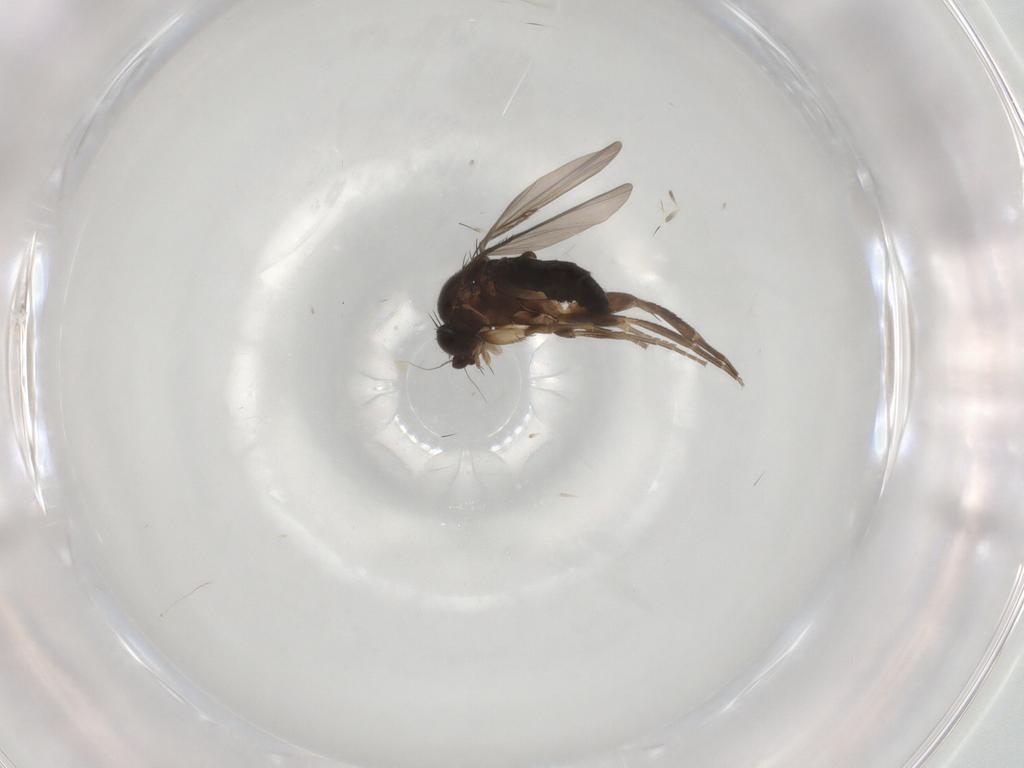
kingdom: Animalia
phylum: Arthropoda
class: Insecta
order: Diptera
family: Phoridae
